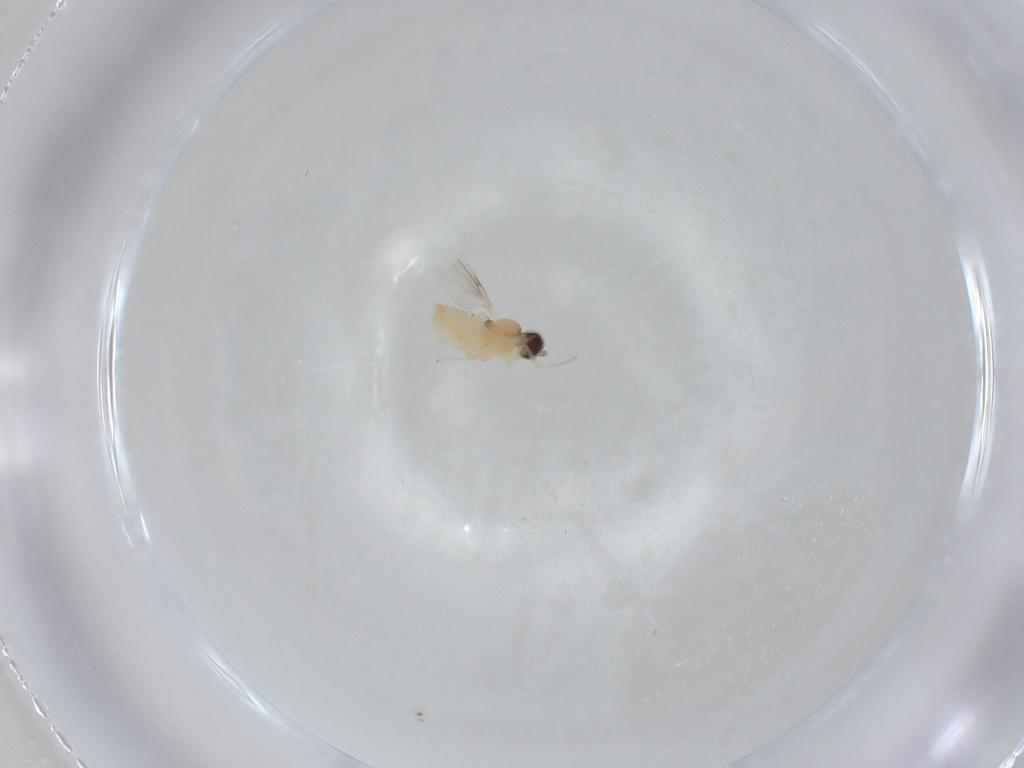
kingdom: Animalia
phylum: Arthropoda
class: Insecta
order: Diptera
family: Cecidomyiidae
